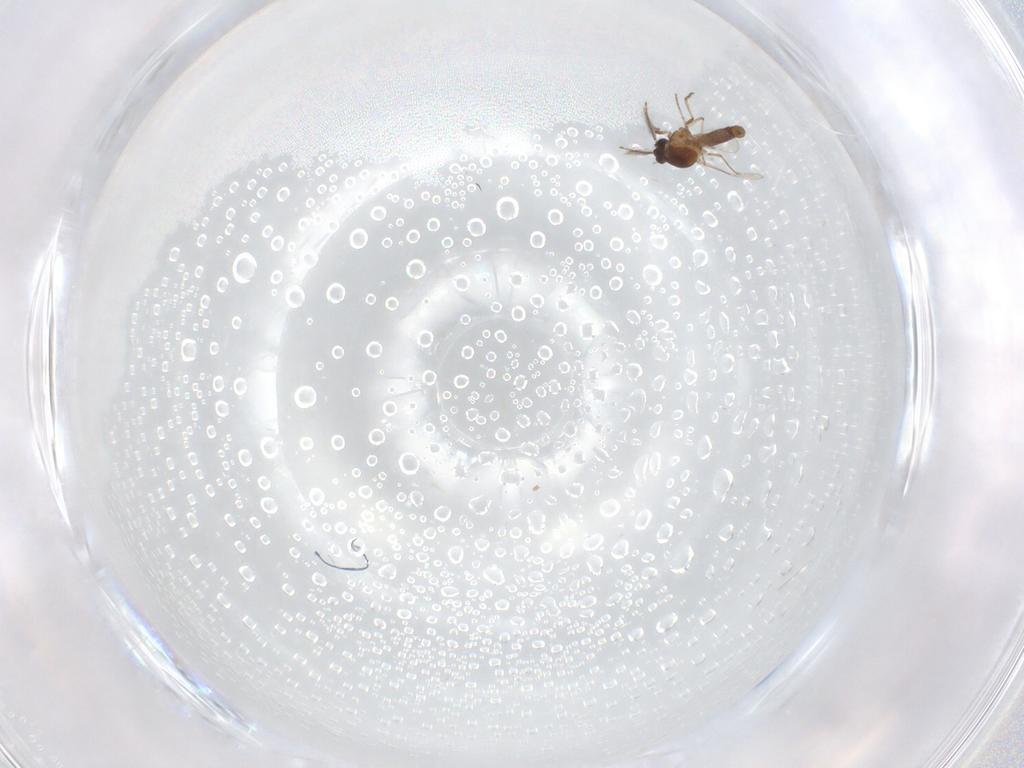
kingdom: Animalia
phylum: Arthropoda
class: Insecta
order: Diptera
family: Ceratopogonidae
